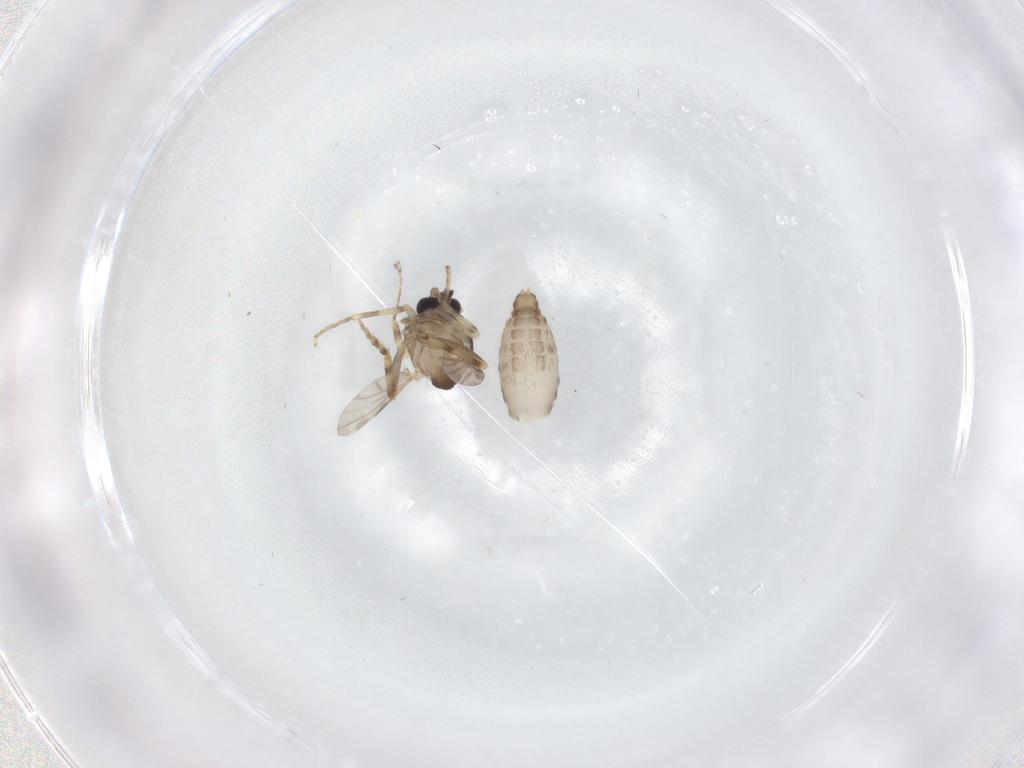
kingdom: Animalia
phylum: Arthropoda
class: Insecta
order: Diptera
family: Ceratopogonidae
